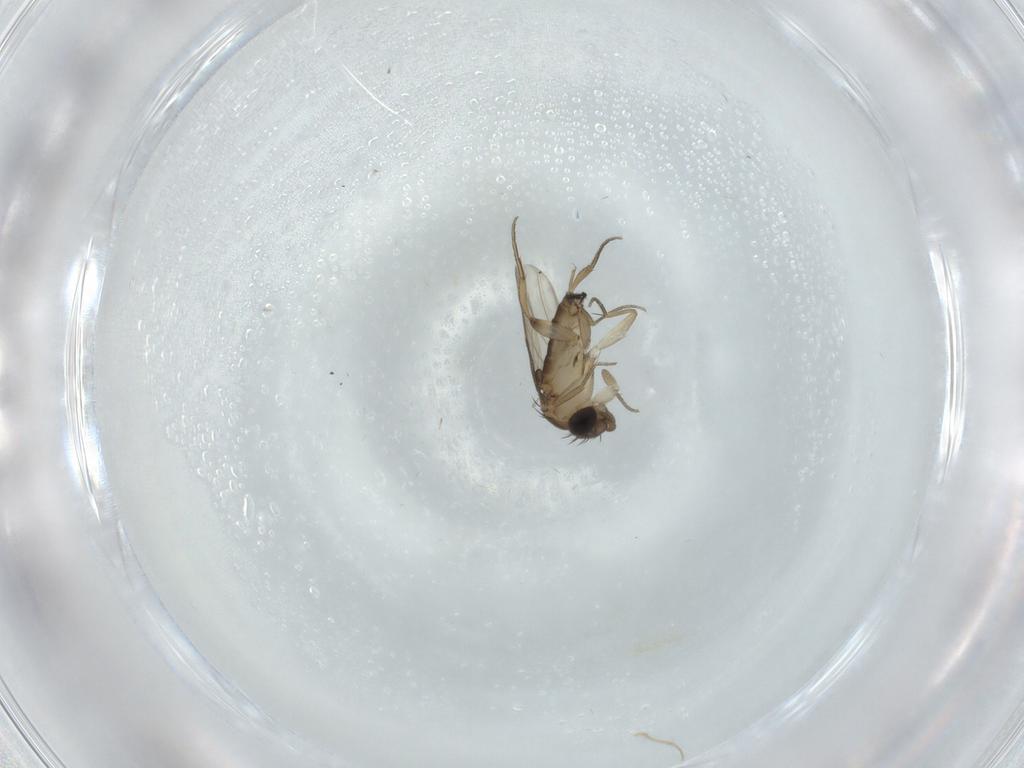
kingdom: Animalia
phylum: Arthropoda
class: Insecta
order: Diptera
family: Phoridae
